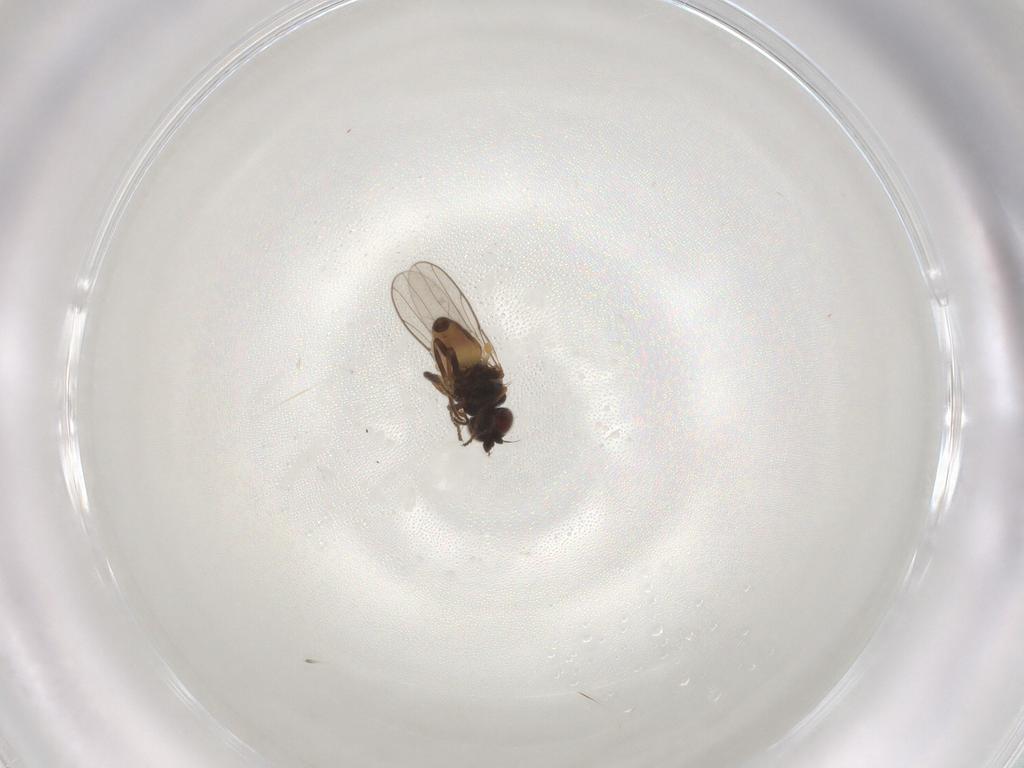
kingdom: Animalia
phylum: Arthropoda
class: Insecta
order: Diptera
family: Chloropidae
